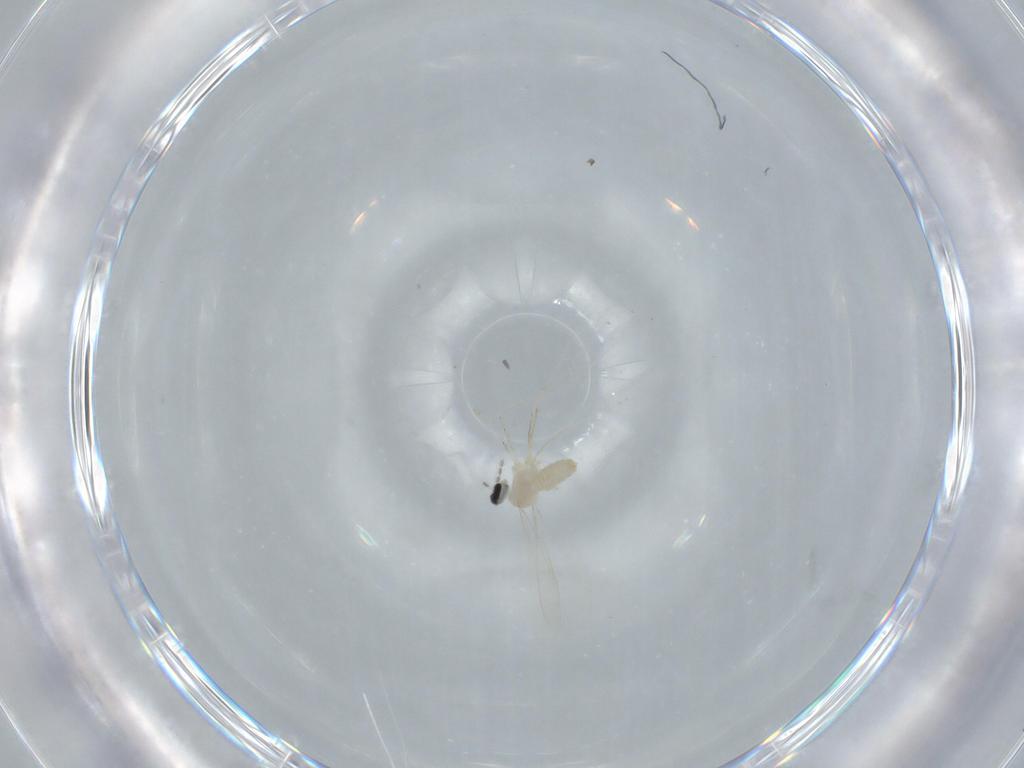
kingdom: Animalia
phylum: Arthropoda
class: Insecta
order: Diptera
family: Cecidomyiidae
